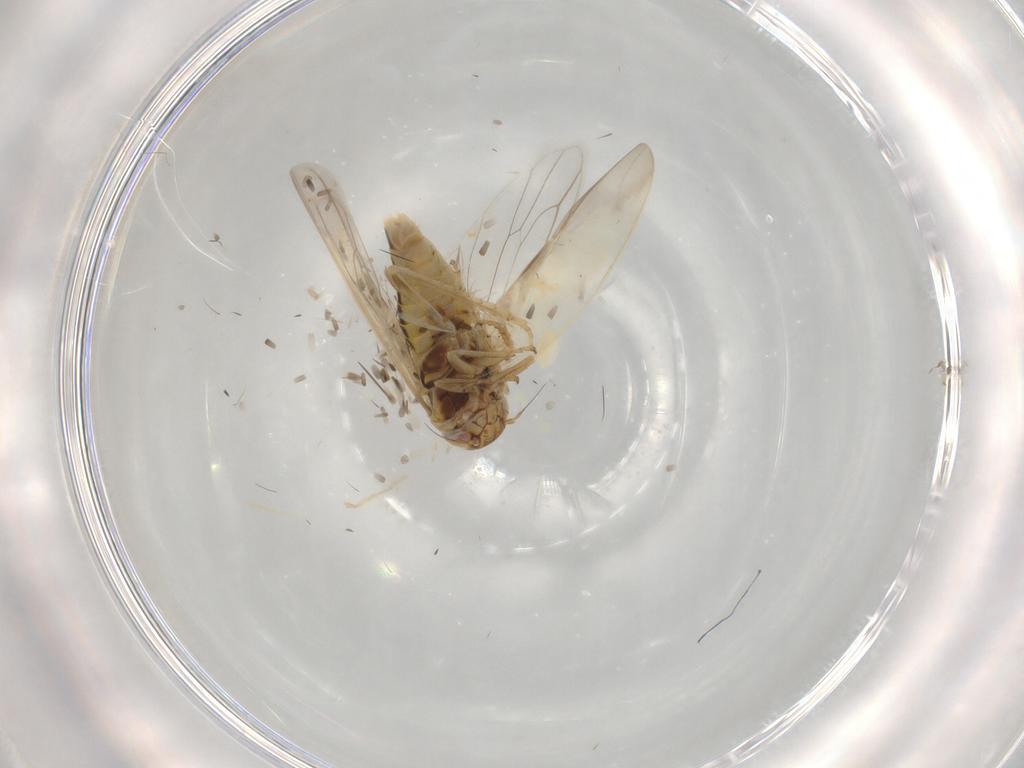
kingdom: Animalia
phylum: Arthropoda
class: Insecta
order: Hemiptera
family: Cicadellidae
